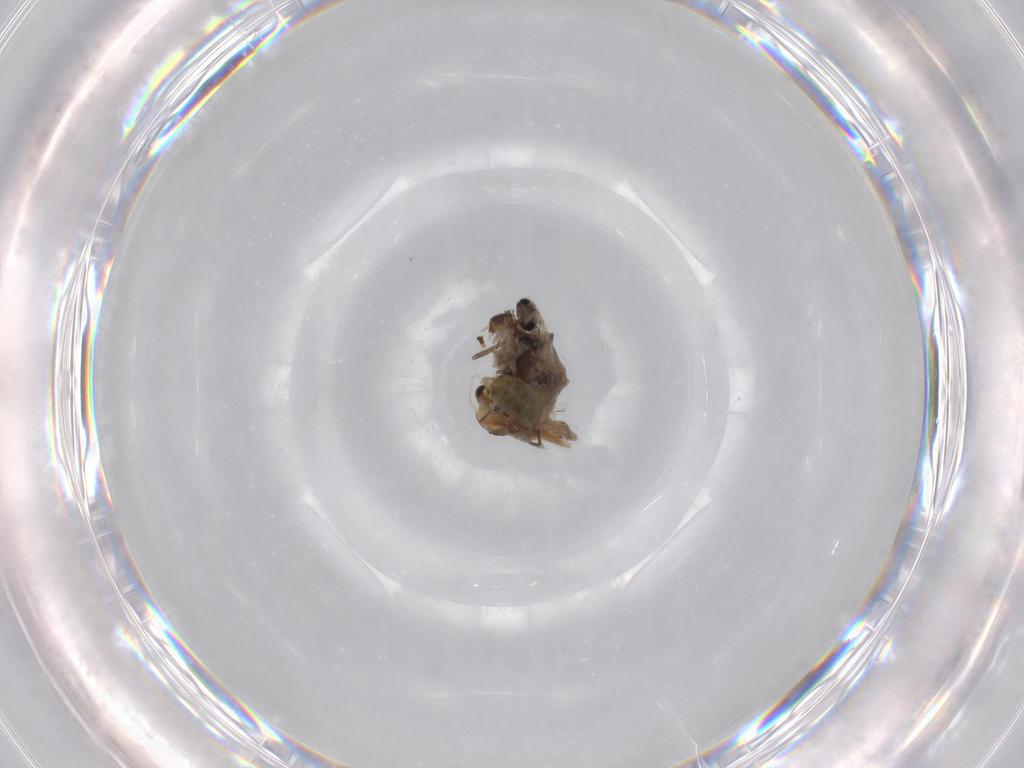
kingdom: Animalia
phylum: Arthropoda
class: Insecta
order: Diptera
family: Chironomidae
